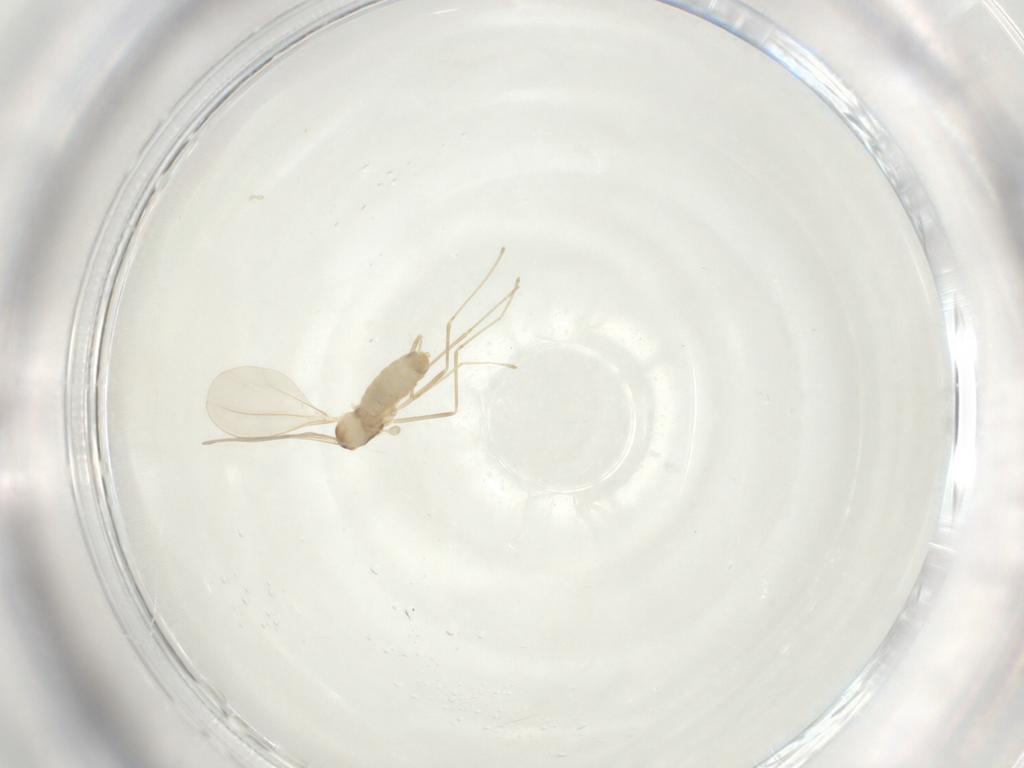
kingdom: Animalia
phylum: Arthropoda
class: Insecta
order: Diptera
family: Cecidomyiidae
